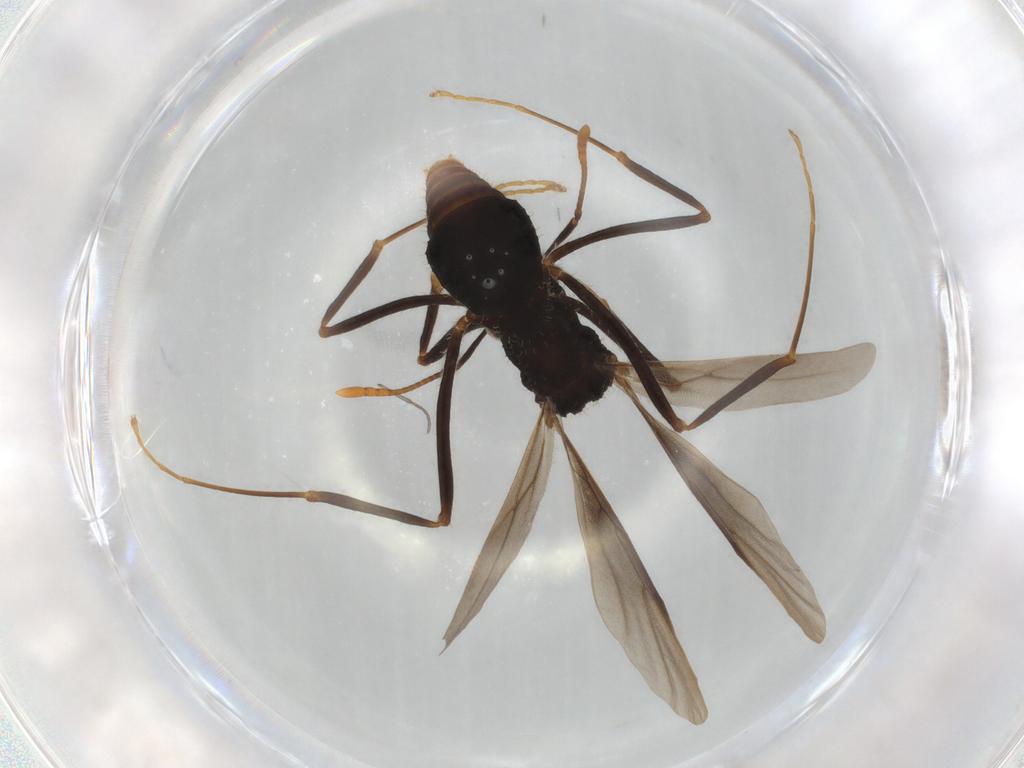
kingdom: Animalia
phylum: Arthropoda
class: Insecta
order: Hymenoptera
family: Formicidae
